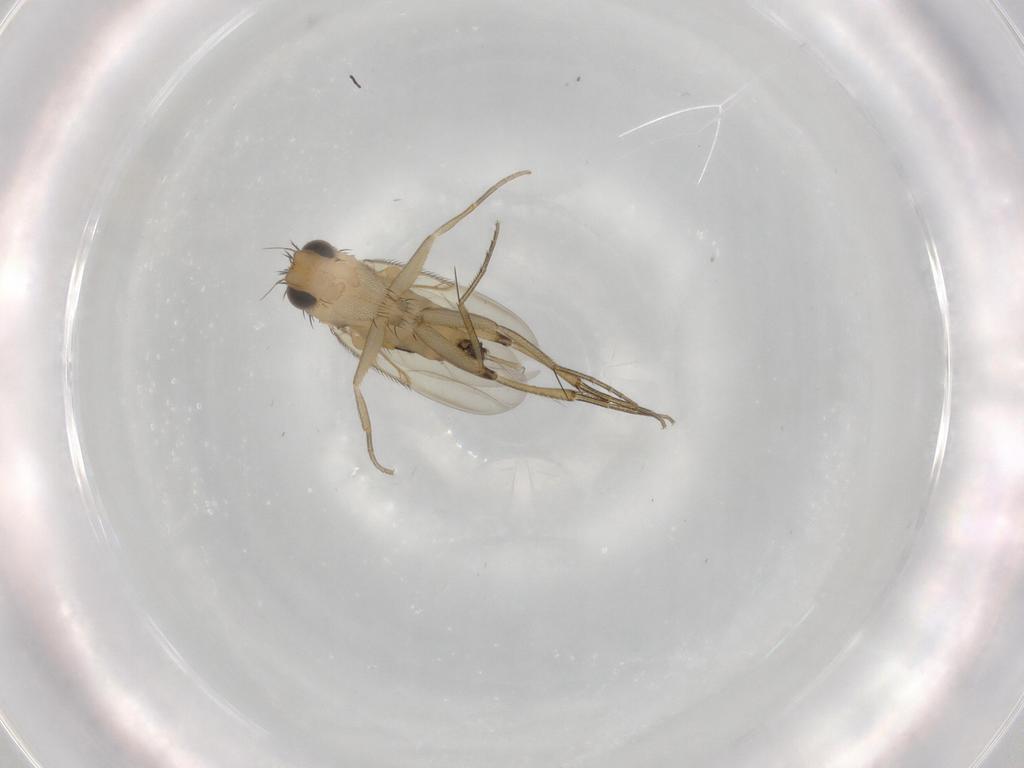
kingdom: Animalia
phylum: Arthropoda
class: Insecta
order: Diptera
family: Phoridae
